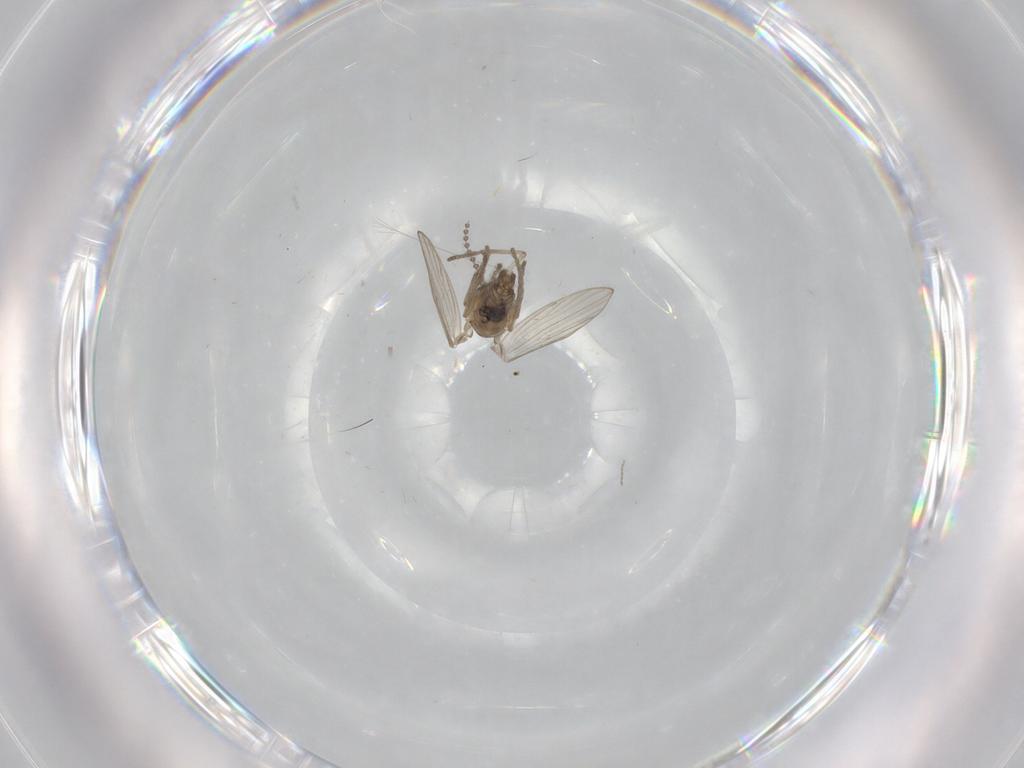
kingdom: Animalia
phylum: Arthropoda
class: Insecta
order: Diptera
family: Psychodidae
